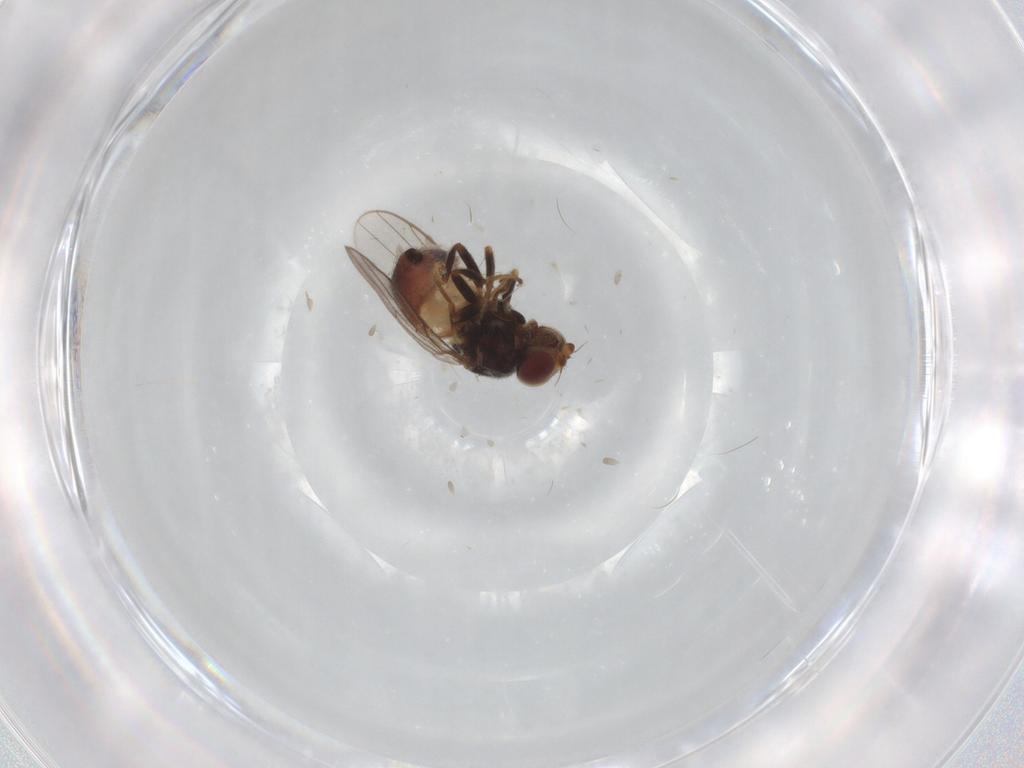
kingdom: Animalia
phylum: Arthropoda
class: Insecta
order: Diptera
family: Chloropidae
